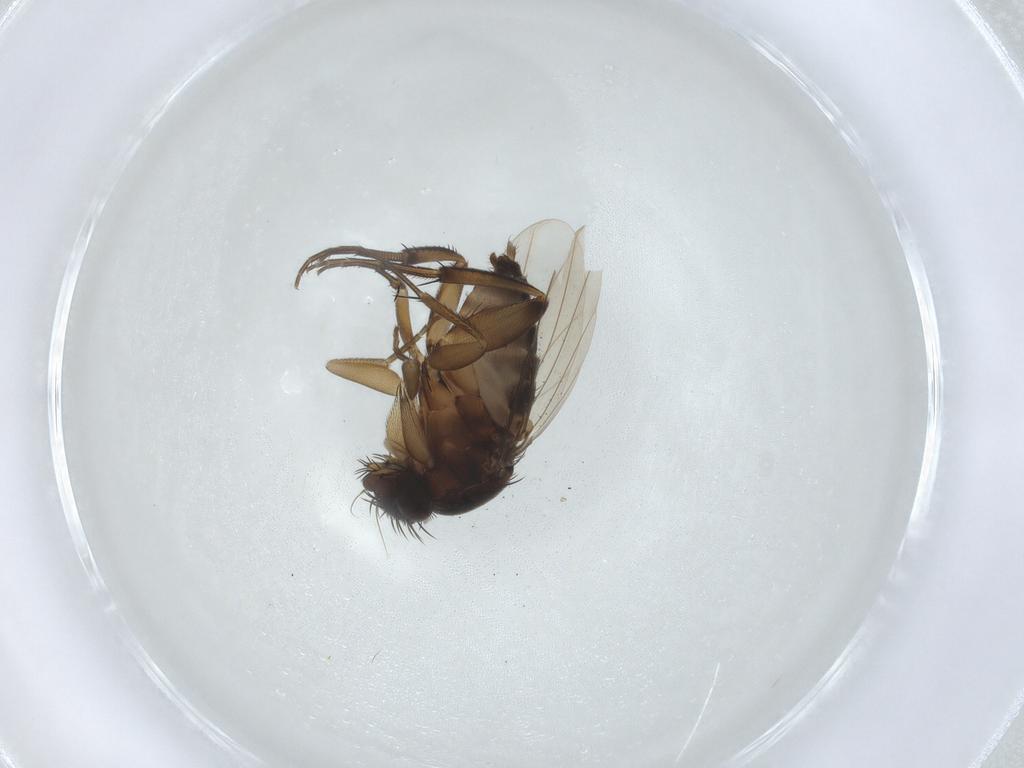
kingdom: Animalia
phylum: Arthropoda
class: Insecta
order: Diptera
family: Phoridae
